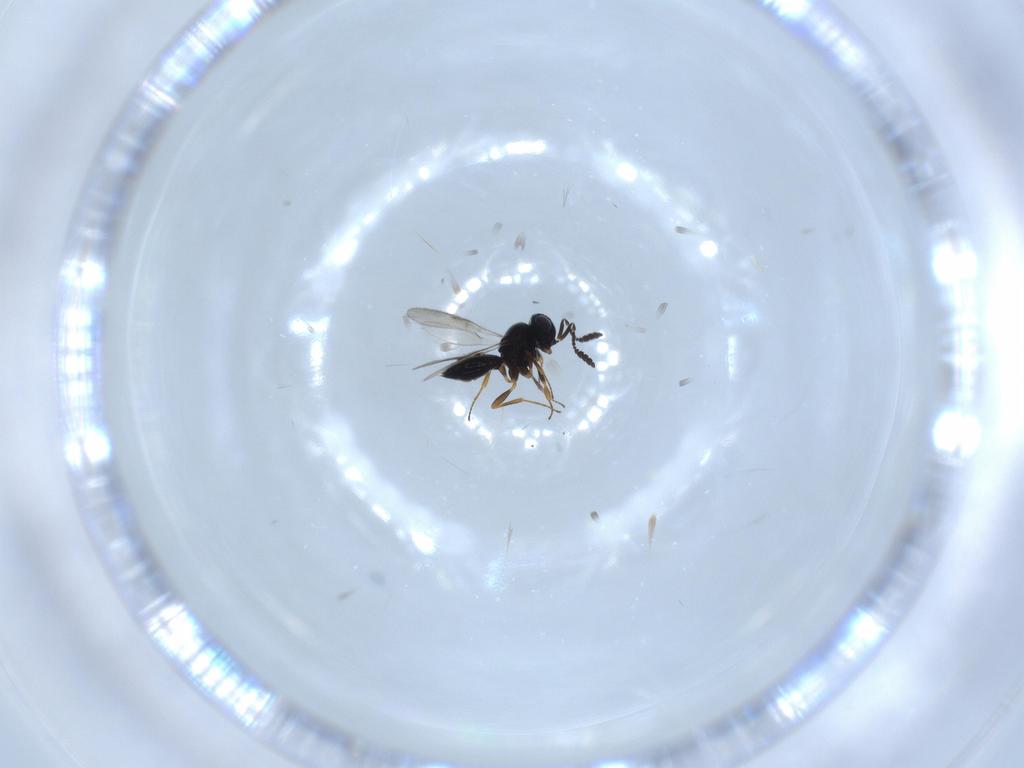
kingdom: Animalia
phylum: Arthropoda
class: Insecta
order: Hymenoptera
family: Scelionidae
